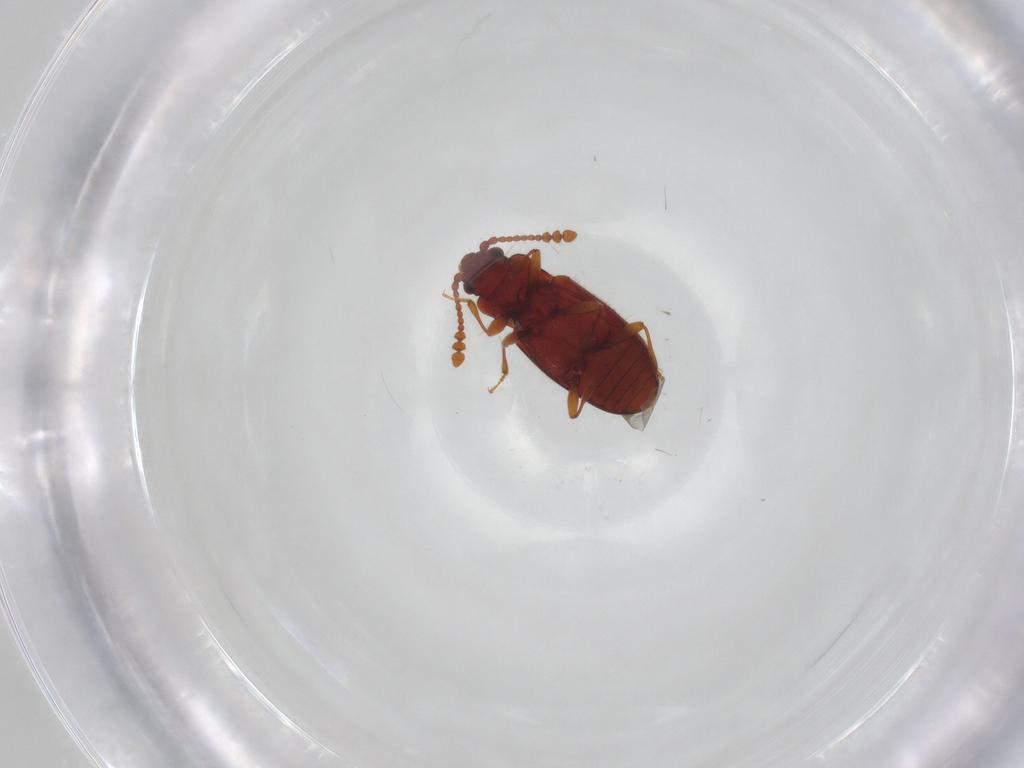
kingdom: Animalia
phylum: Arthropoda
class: Insecta
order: Coleoptera
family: Cryptophagidae
